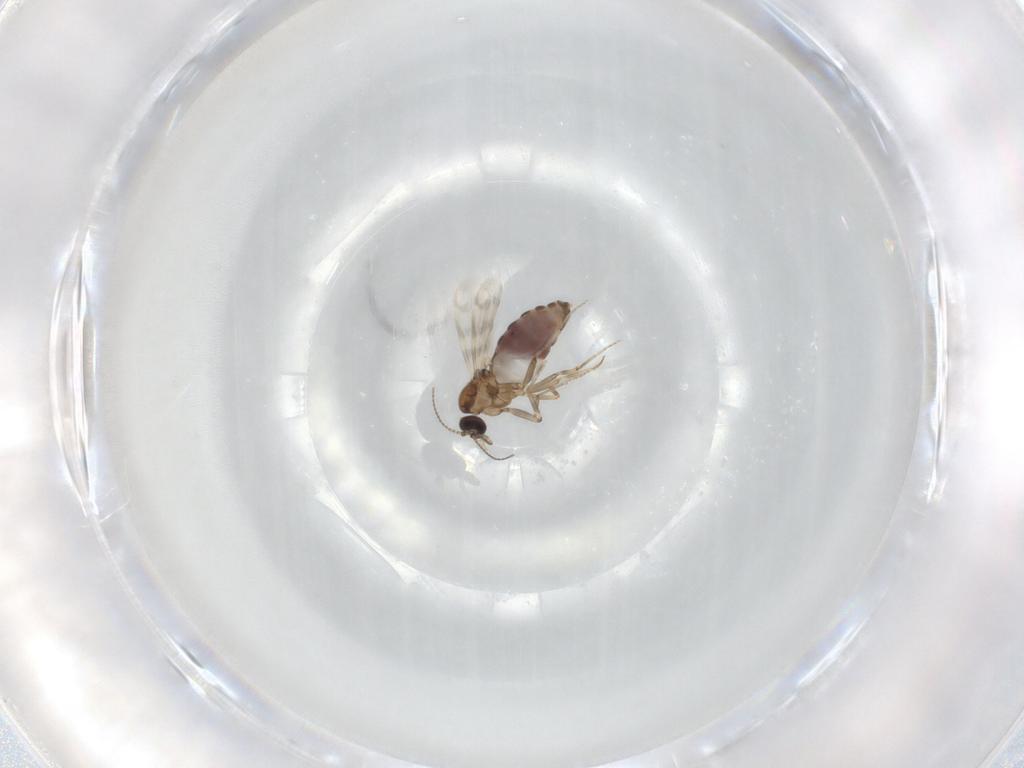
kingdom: Animalia
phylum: Arthropoda
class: Insecta
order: Diptera
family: Ceratopogonidae
